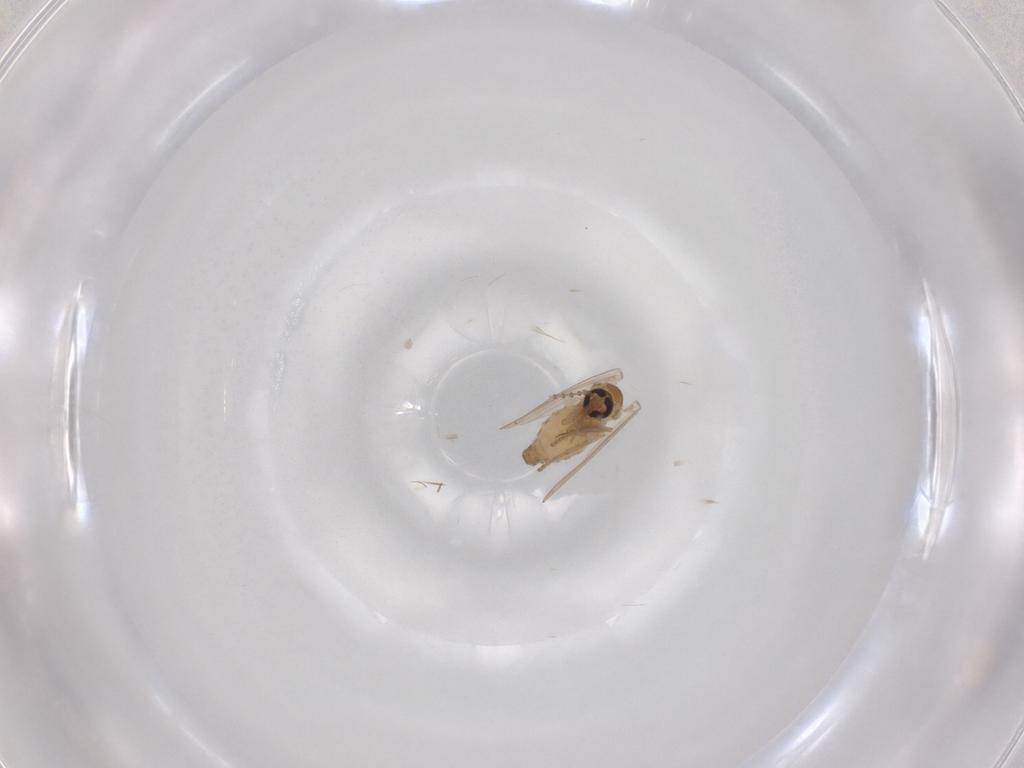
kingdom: Animalia
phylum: Arthropoda
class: Insecta
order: Diptera
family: Psychodidae
